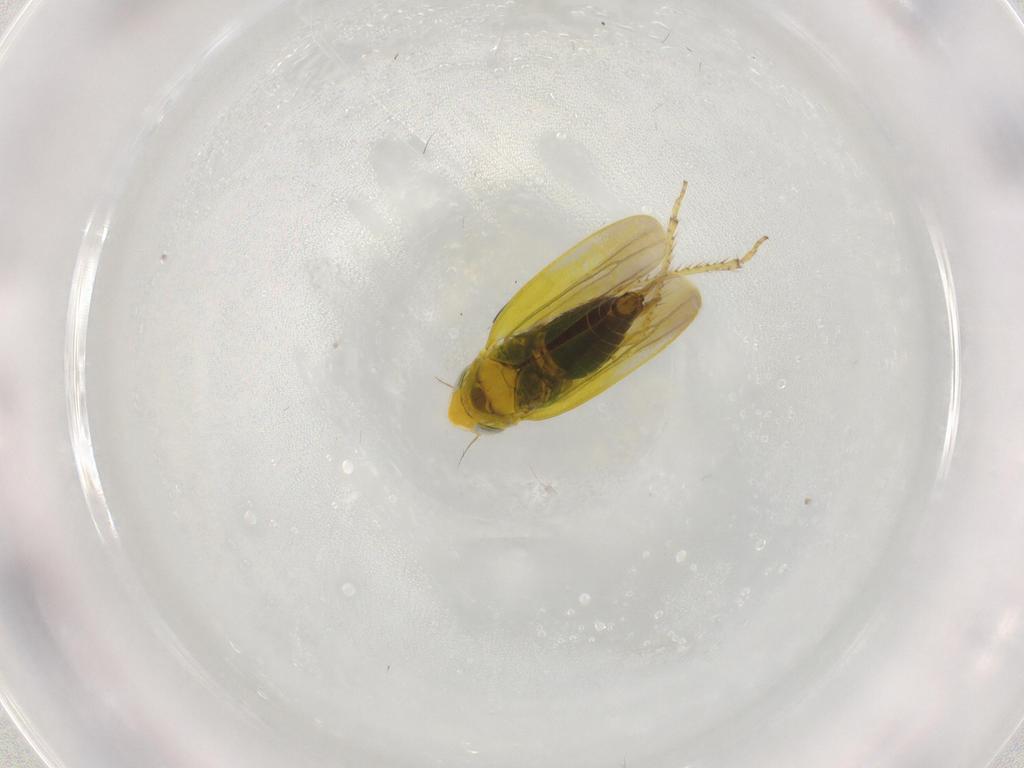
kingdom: Animalia
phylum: Arthropoda
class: Insecta
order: Hemiptera
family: Cicadellidae
